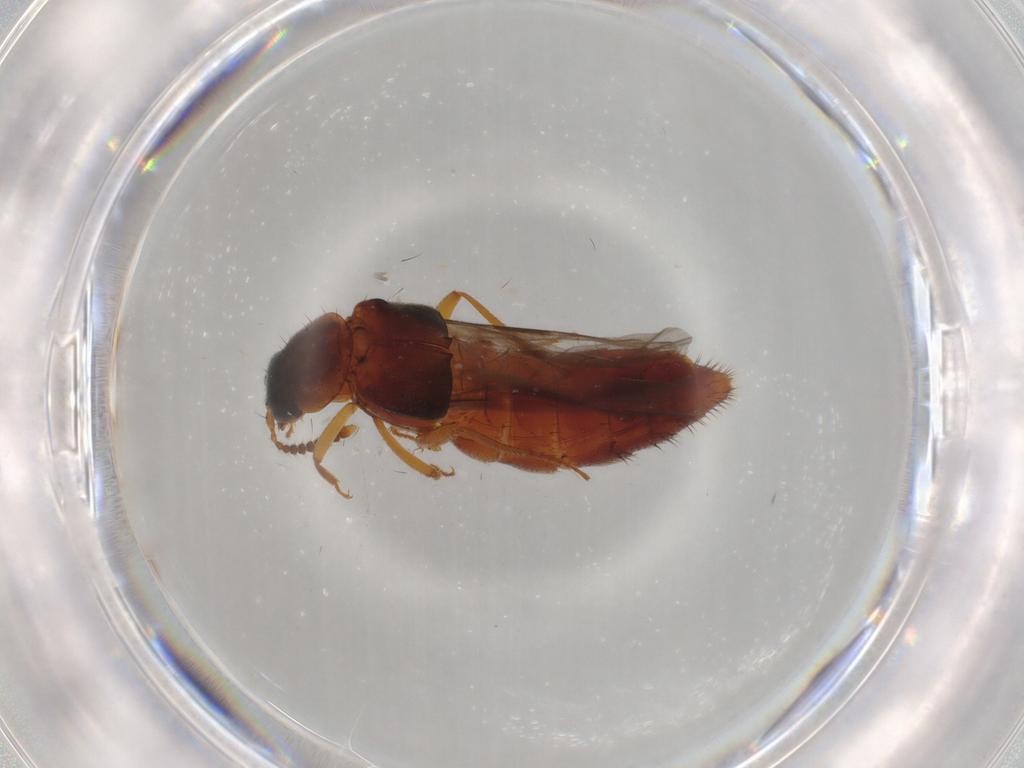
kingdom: Animalia
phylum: Arthropoda
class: Insecta
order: Coleoptera
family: Staphylinidae
